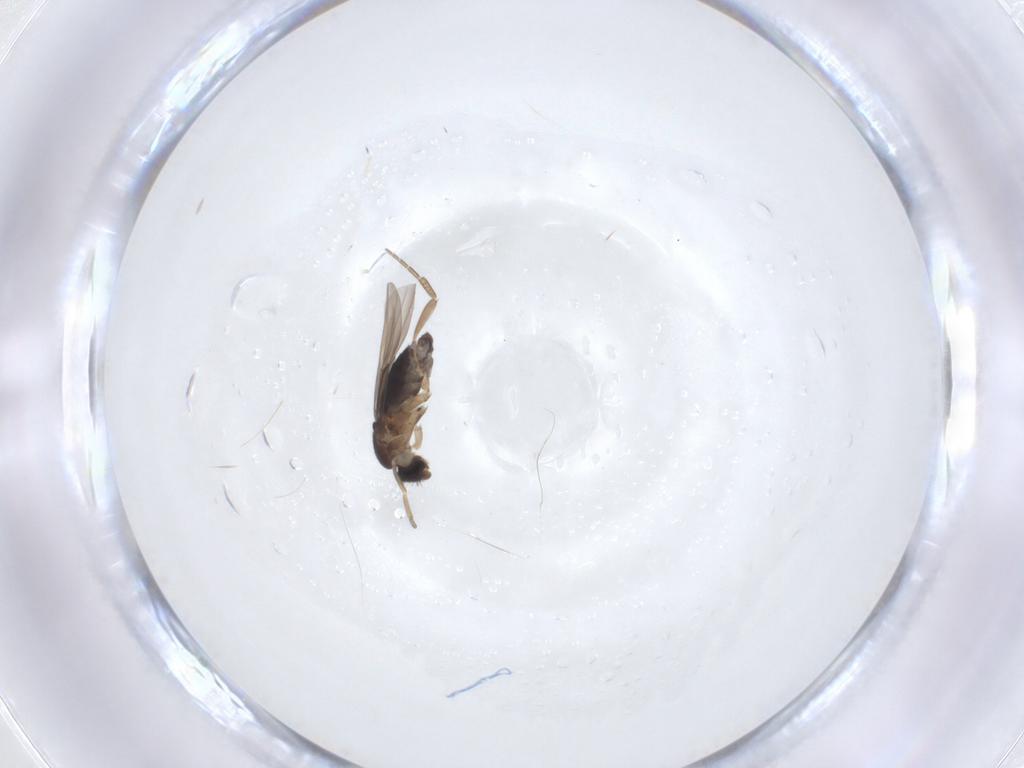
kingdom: Animalia
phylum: Arthropoda
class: Insecta
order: Diptera
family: Phoridae
